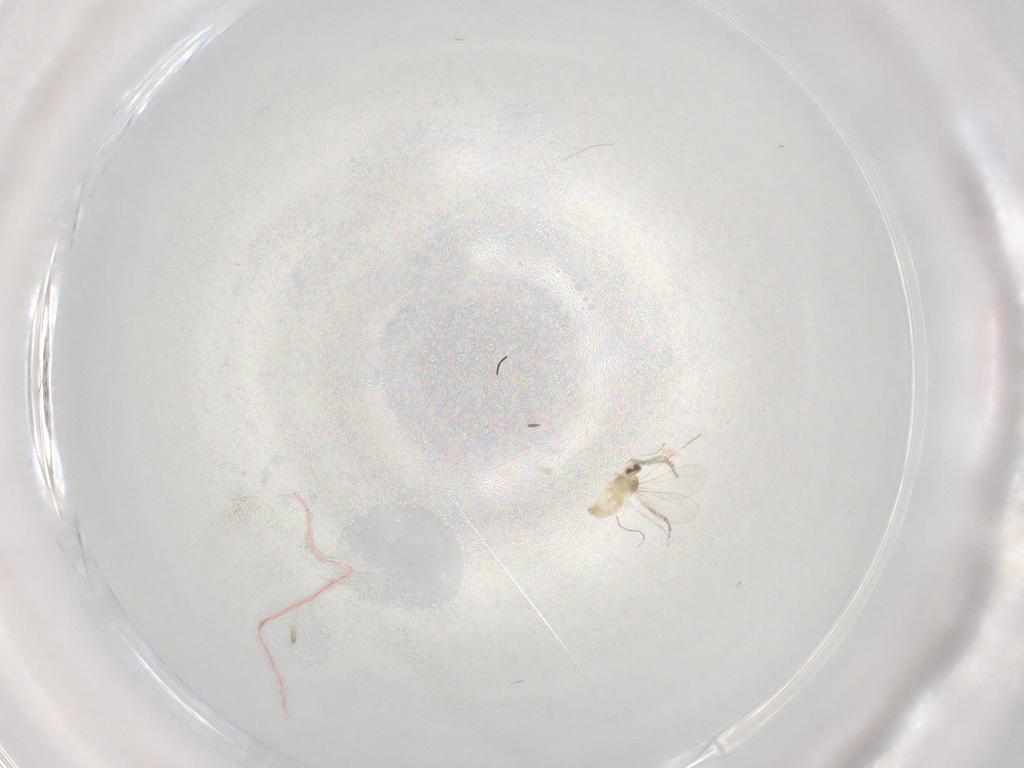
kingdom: Animalia
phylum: Arthropoda
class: Insecta
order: Diptera
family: Cecidomyiidae
